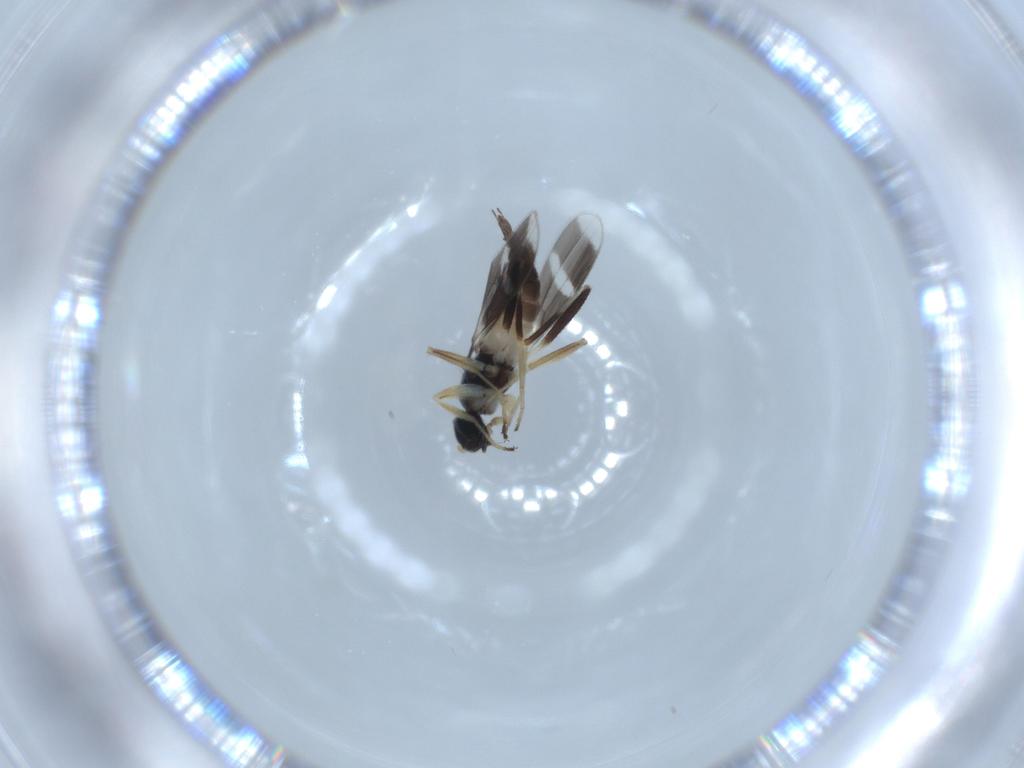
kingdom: Animalia
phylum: Arthropoda
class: Insecta
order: Diptera
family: Hybotidae
